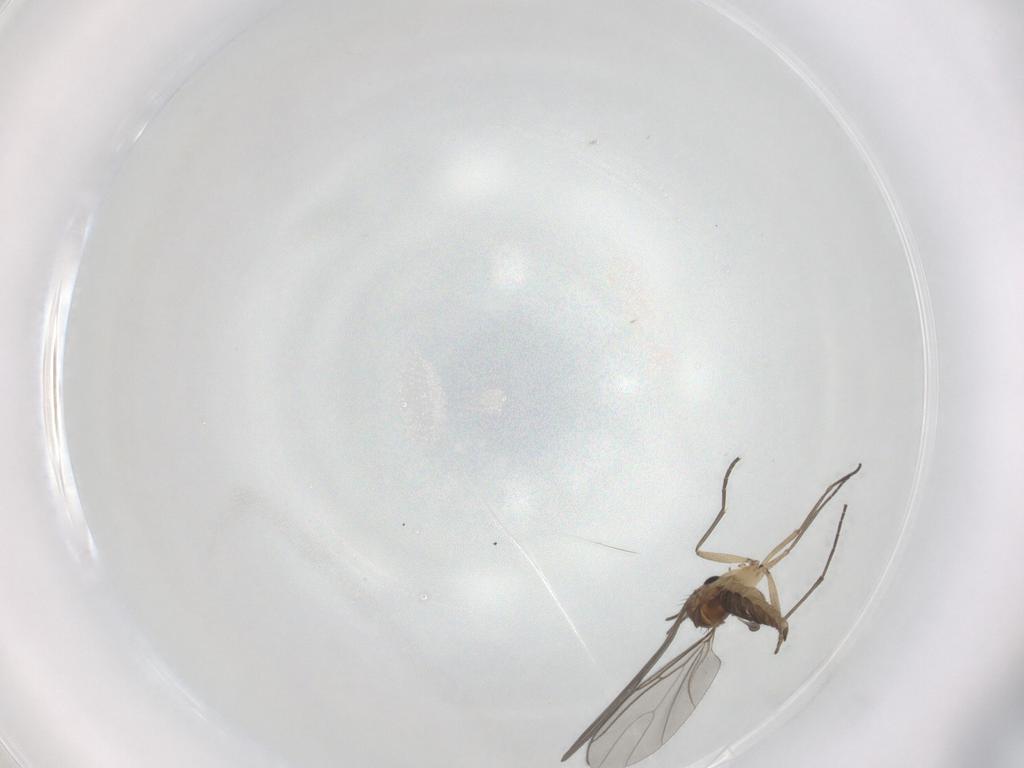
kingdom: Animalia
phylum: Arthropoda
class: Insecta
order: Diptera
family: Sciaridae
